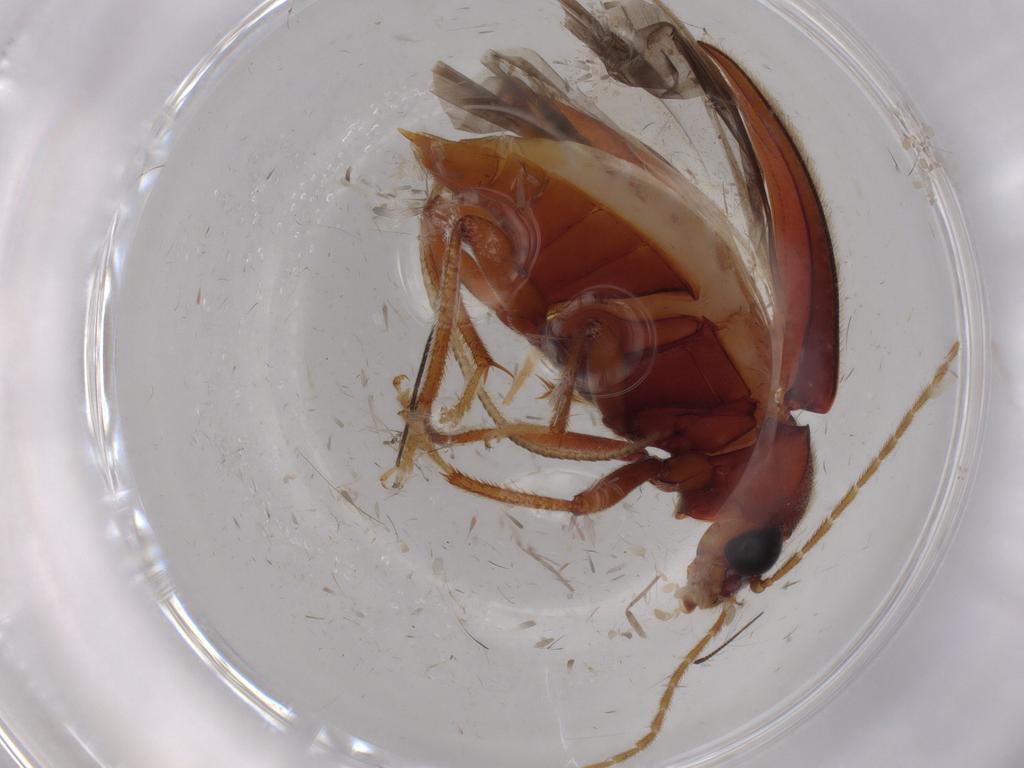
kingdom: Animalia
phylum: Arthropoda
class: Insecta
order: Coleoptera
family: Ptilodactylidae
